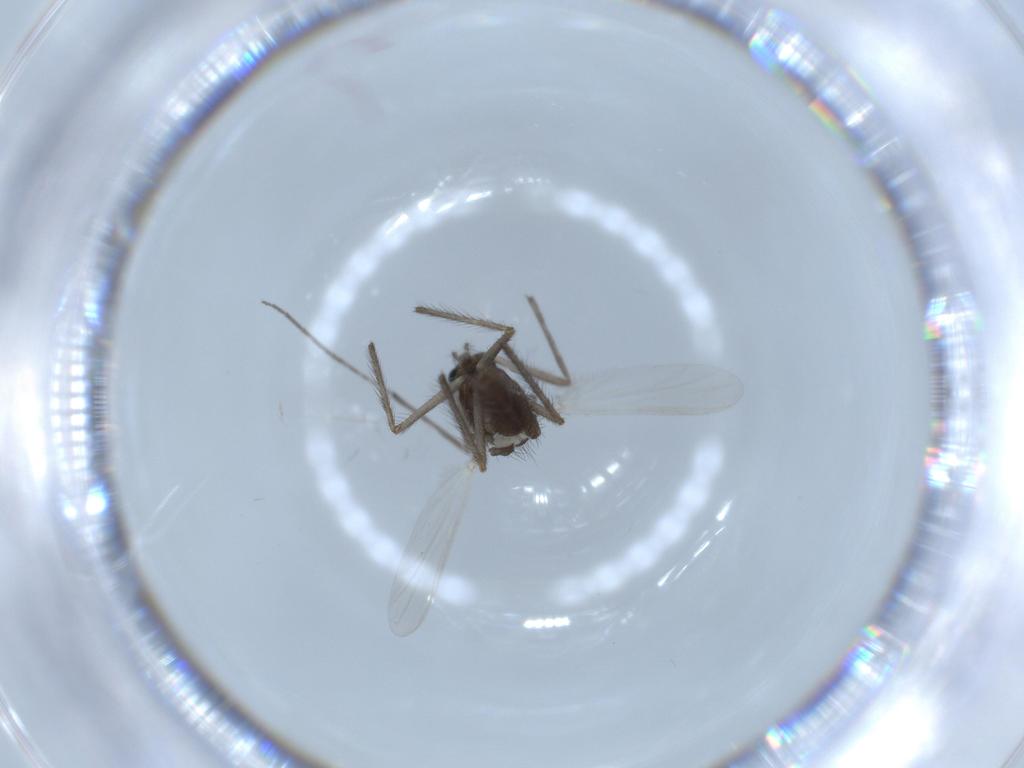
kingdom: Animalia
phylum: Arthropoda
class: Insecta
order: Diptera
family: Chironomidae
